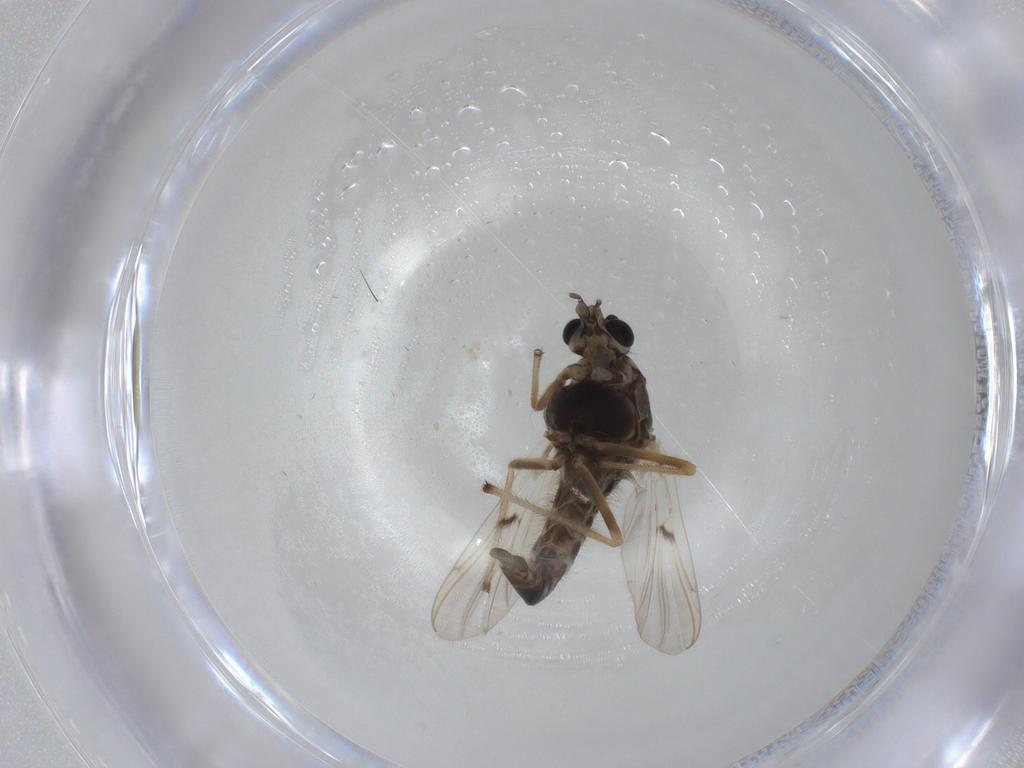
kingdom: Animalia
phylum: Arthropoda
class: Insecta
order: Diptera
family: Chironomidae
